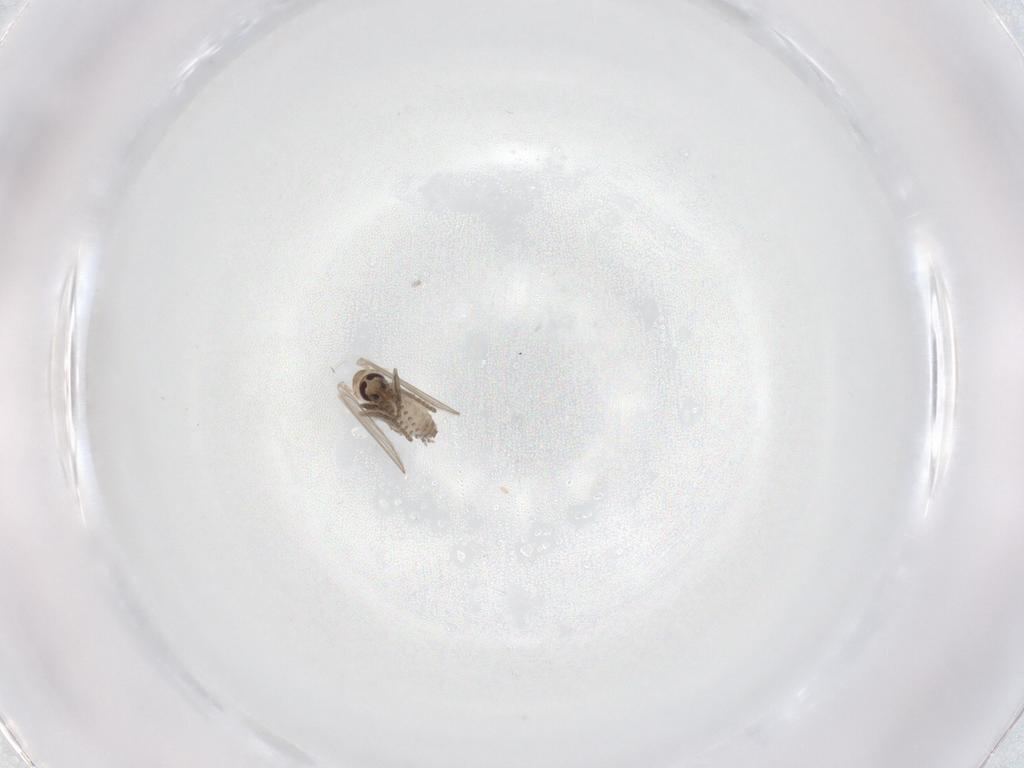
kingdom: Animalia
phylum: Arthropoda
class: Insecta
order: Diptera
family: Psychodidae
